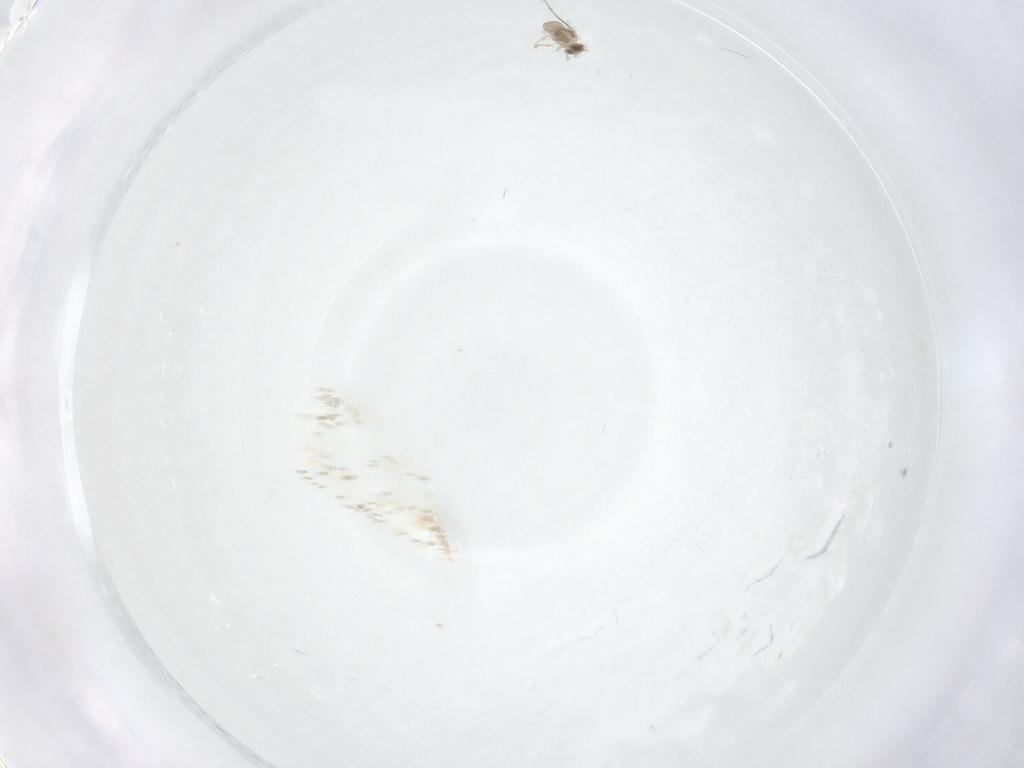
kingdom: Animalia
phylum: Arthropoda
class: Insecta
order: Diptera
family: Cecidomyiidae
